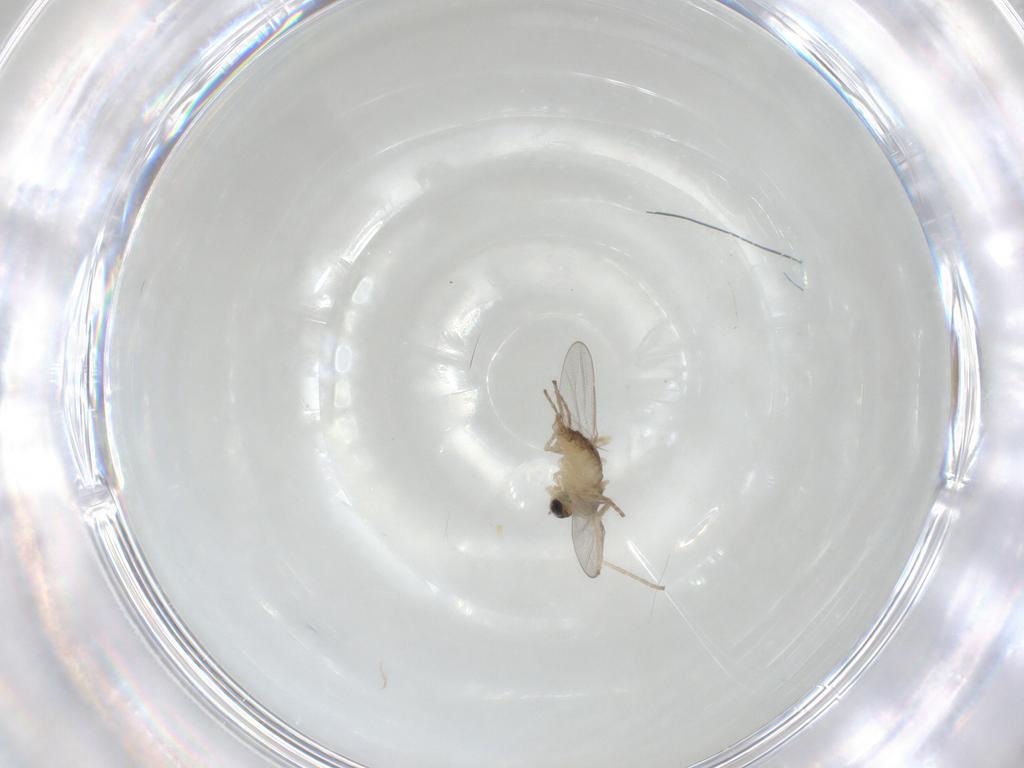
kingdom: Animalia
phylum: Arthropoda
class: Insecta
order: Diptera
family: Cecidomyiidae
